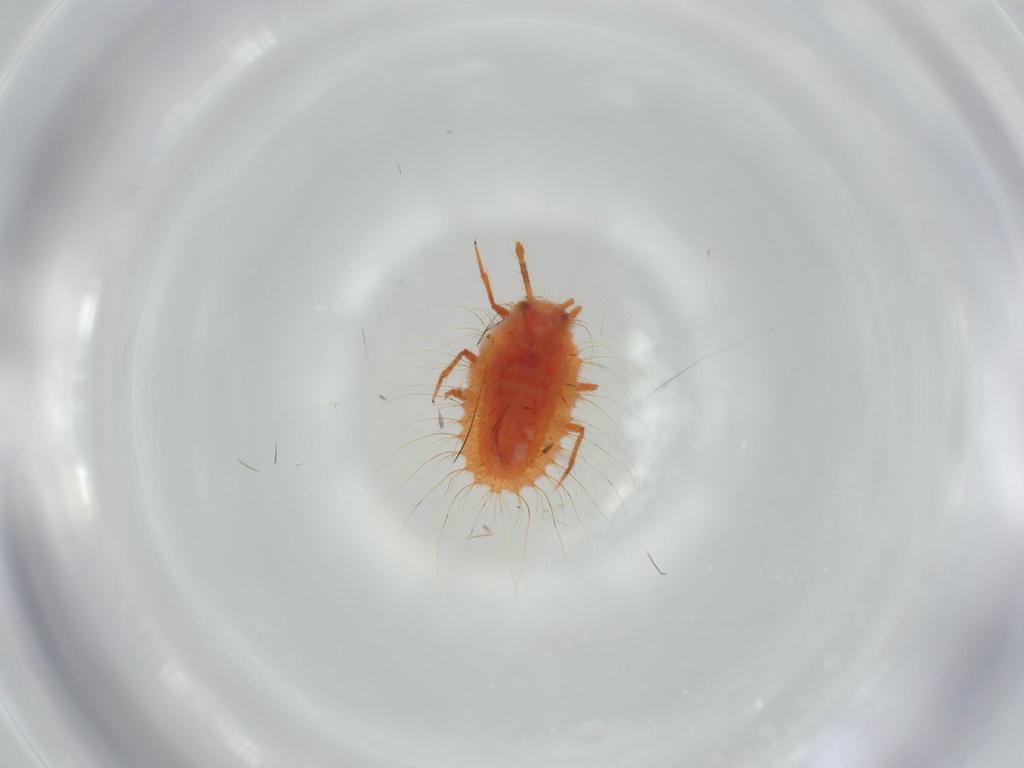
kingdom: Animalia
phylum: Arthropoda
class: Insecta
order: Hemiptera
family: Coccoidea_incertae_sedis
